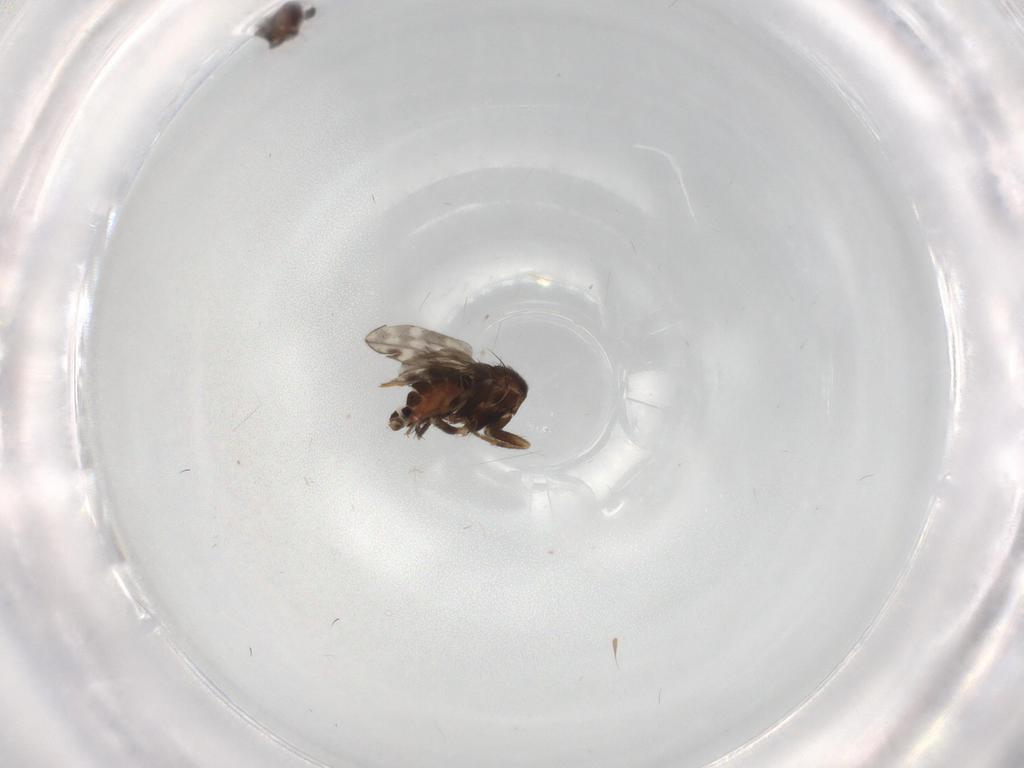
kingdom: Animalia
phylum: Arthropoda
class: Insecta
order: Diptera
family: Sphaeroceridae
